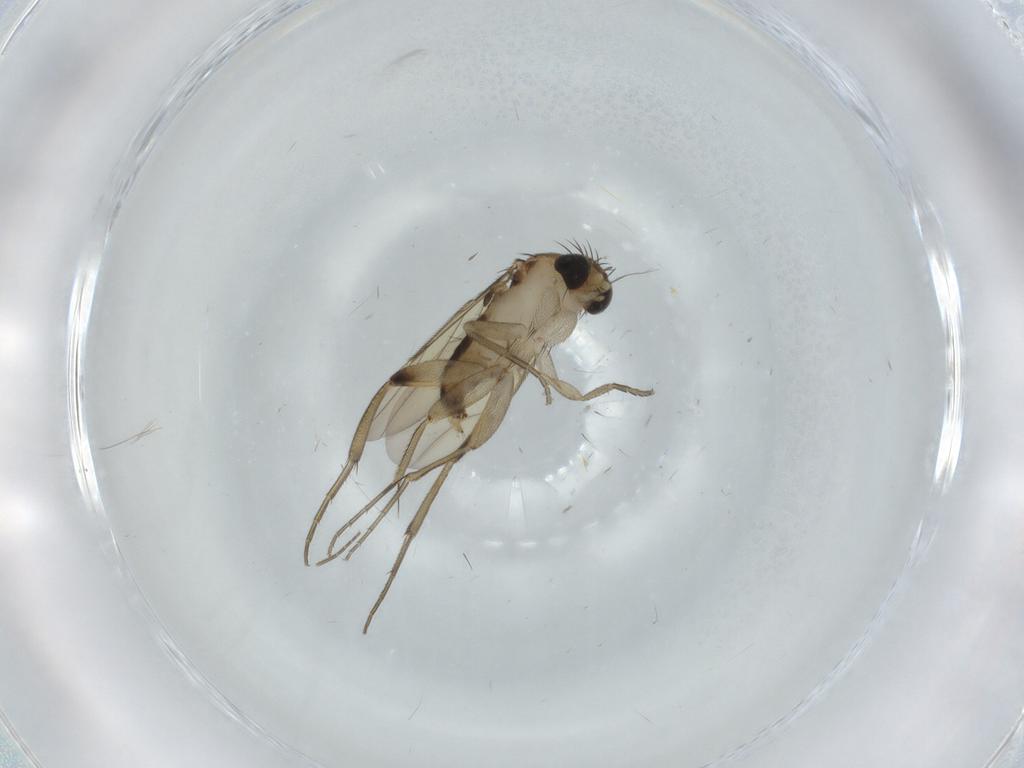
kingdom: Animalia
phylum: Arthropoda
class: Insecta
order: Diptera
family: Phoridae
